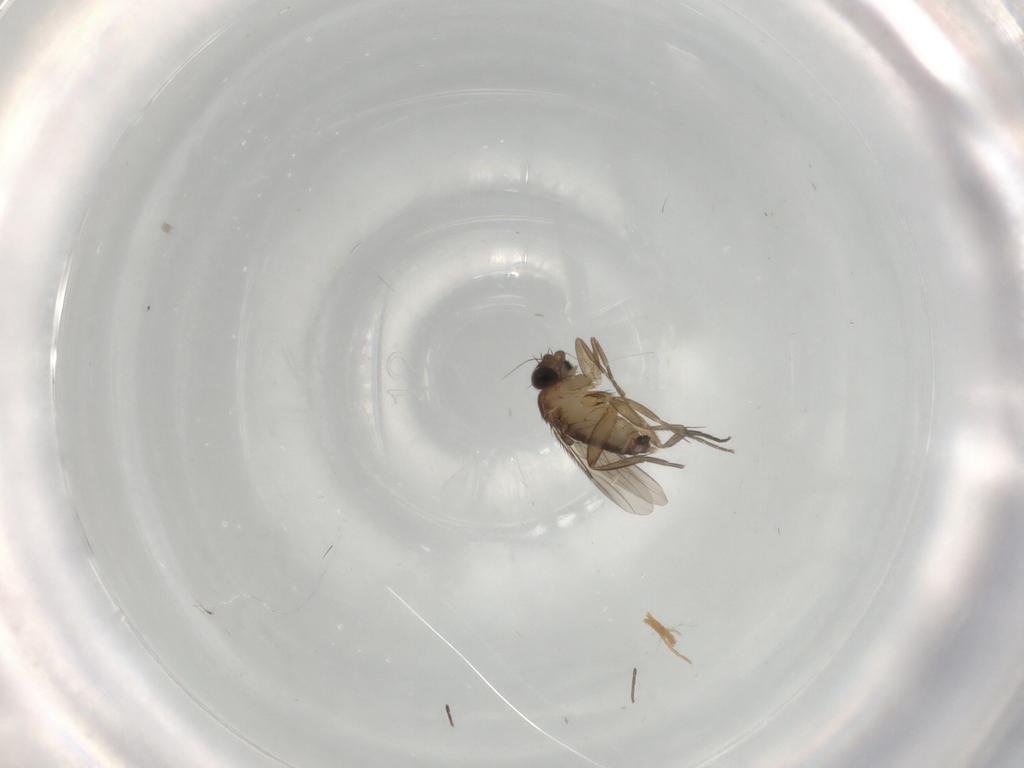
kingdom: Animalia
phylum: Arthropoda
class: Insecta
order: Diptera
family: Phoridae
